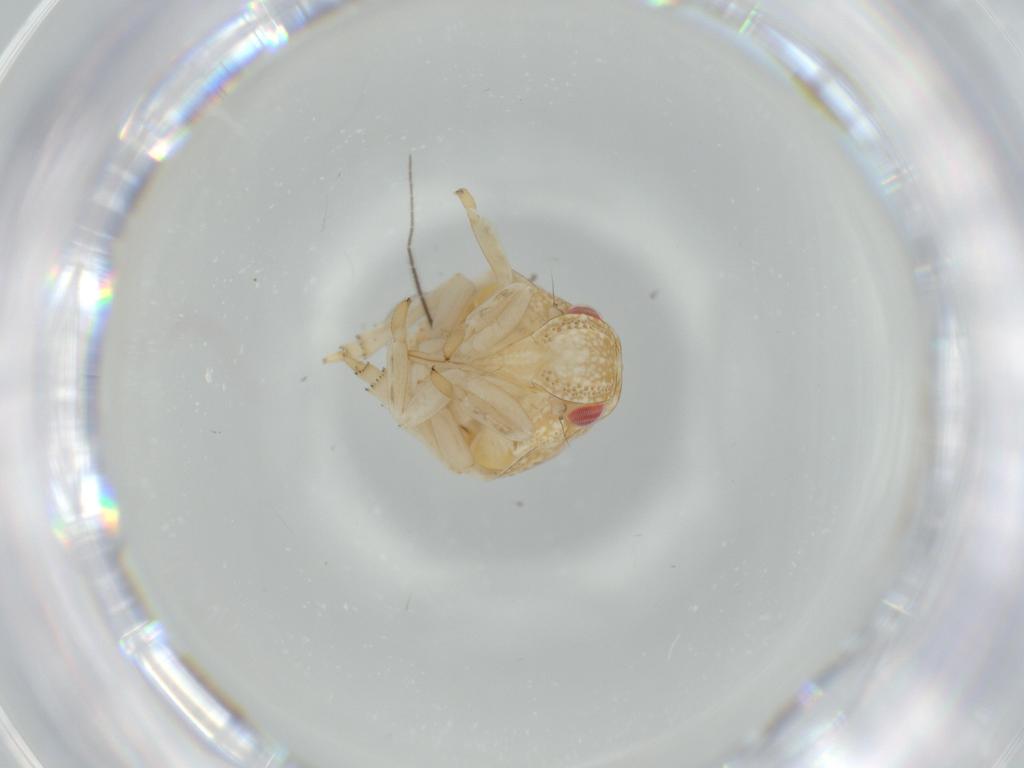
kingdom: Animalia
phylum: Arthropoda
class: Insecta
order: Hemiptera
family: Acanaloniidae
